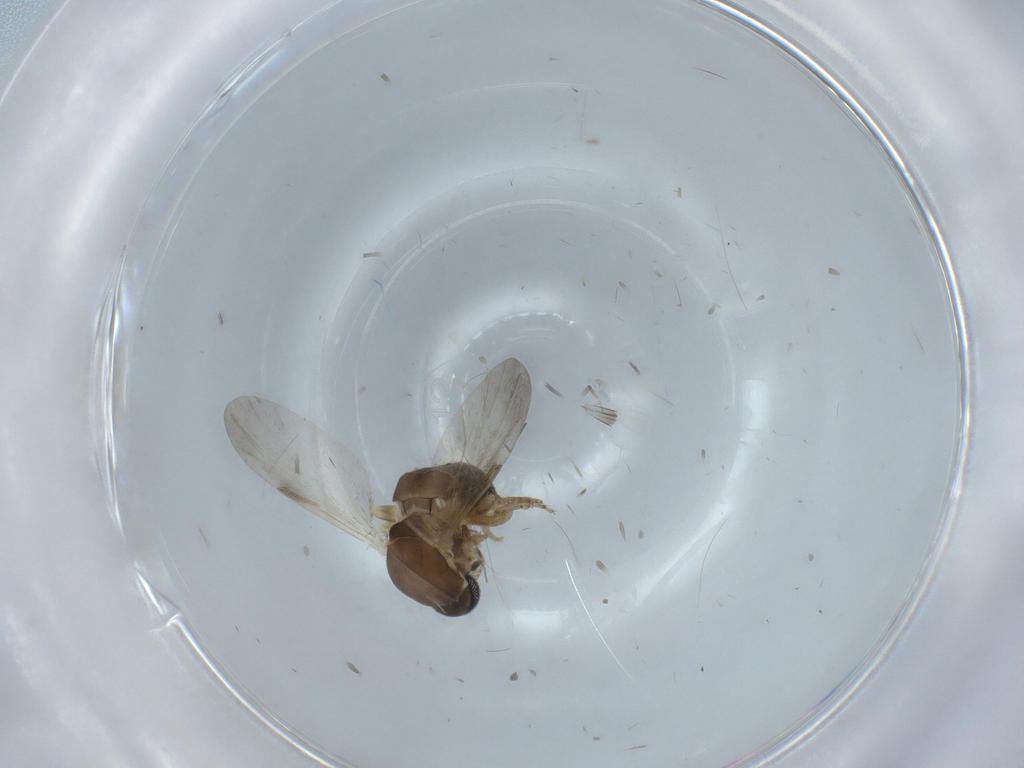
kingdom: Animalia
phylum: Arthropoda
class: Insecta
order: Diptera
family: Ceratopogonidae
